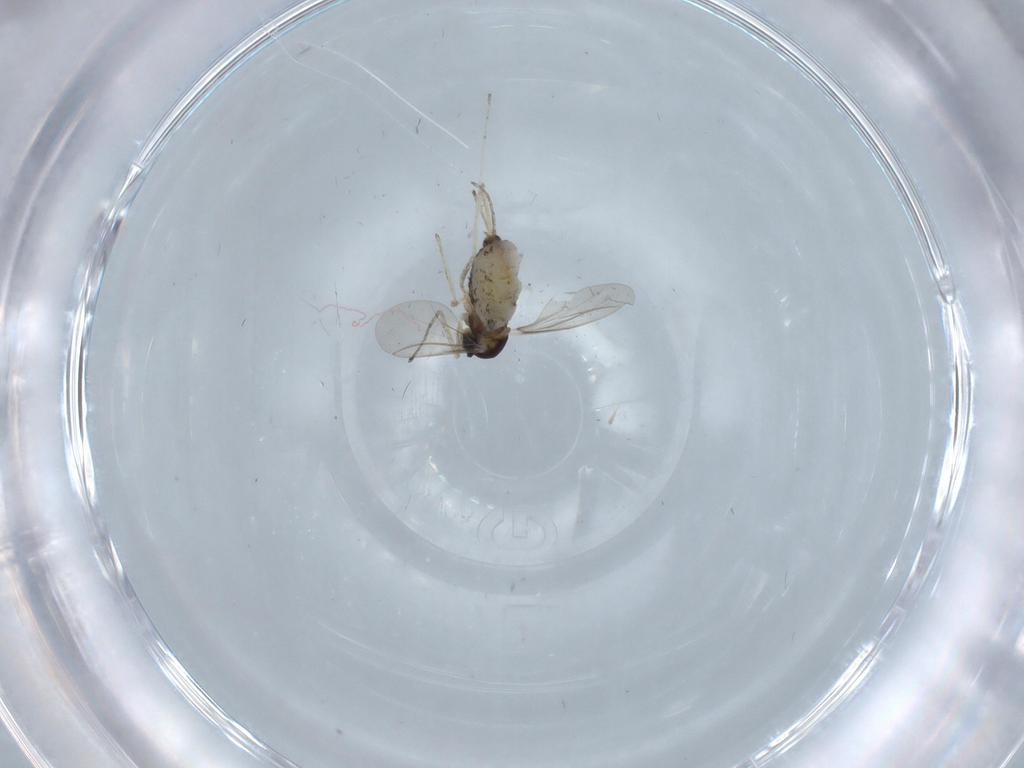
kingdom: Animalia
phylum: Arthropoda
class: Insecta
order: Diptera
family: Cecidomyiidae
